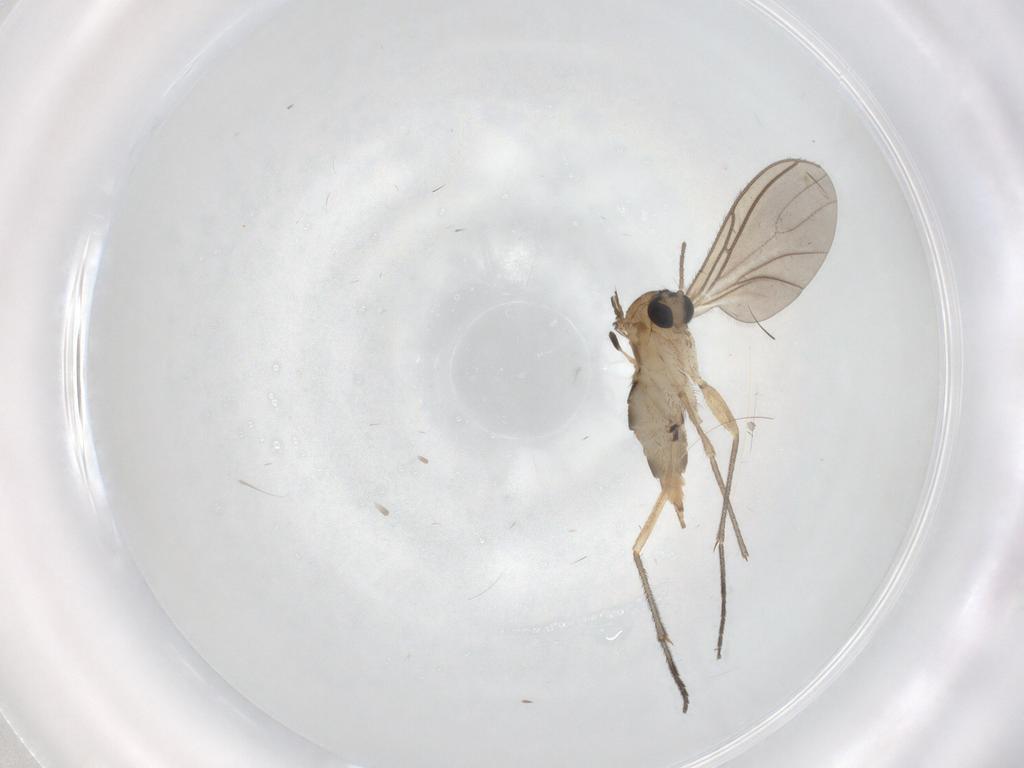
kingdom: Animalia
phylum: Arthropoda
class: Insecta
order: Diptera
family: Sciaridae
